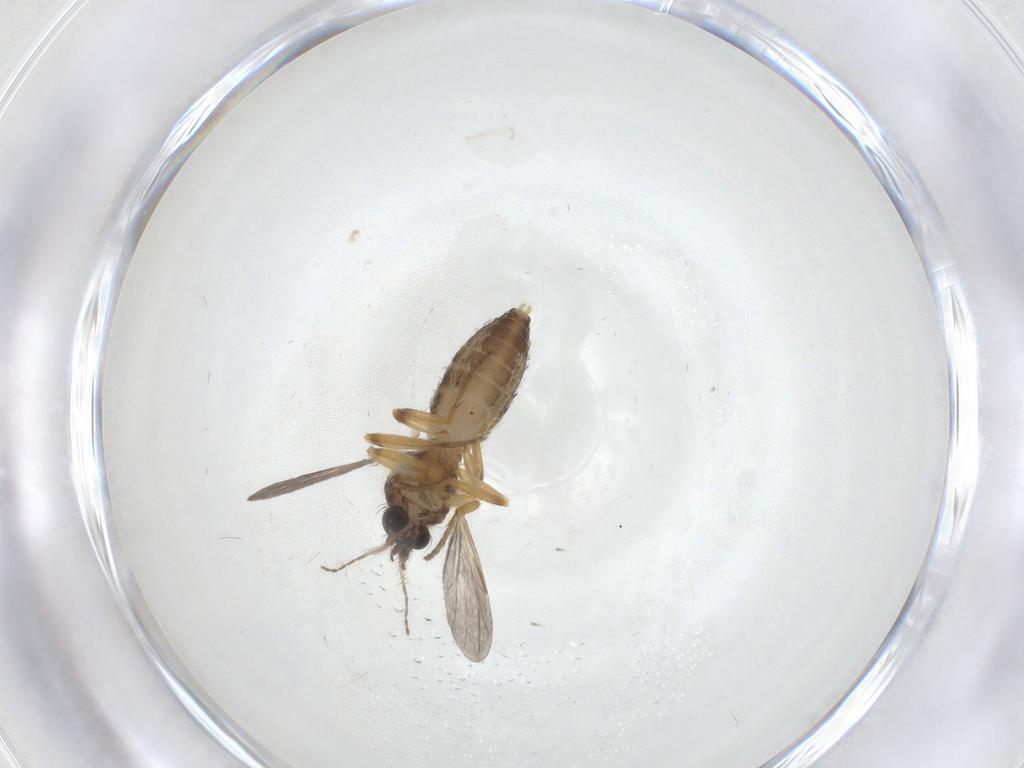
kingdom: Animalia
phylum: Arthropoda
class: Insecta
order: Diptera
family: Ceratopogonidae
